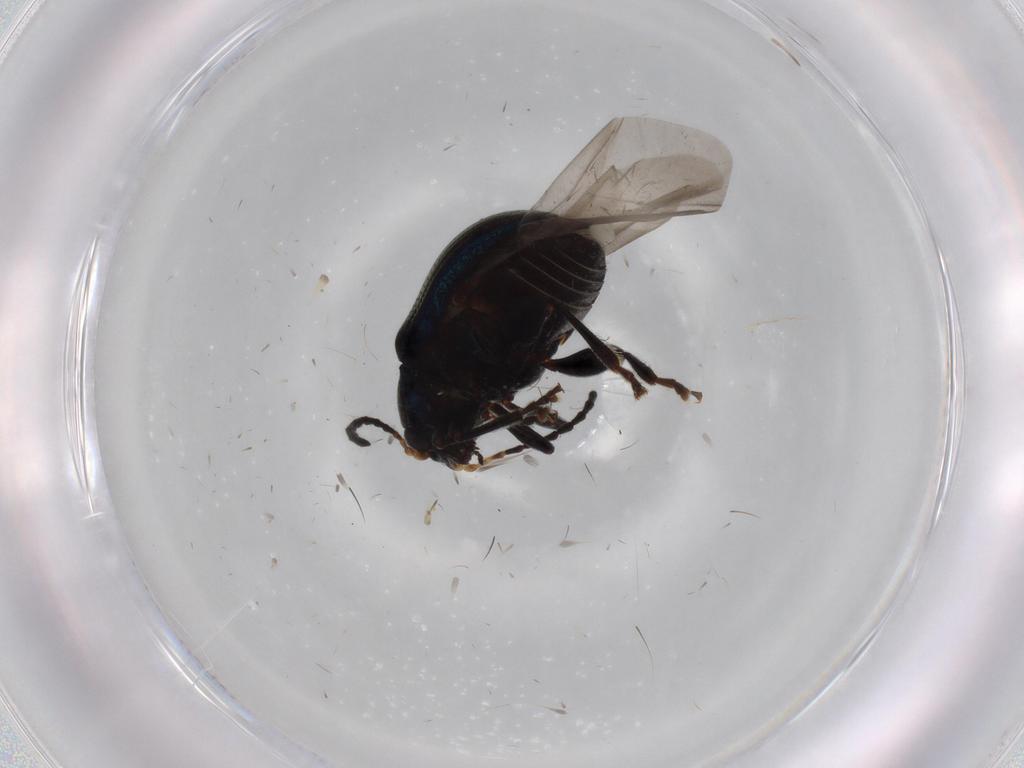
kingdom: Animalia
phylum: Arthropoda
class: Insecta
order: Coleoptera
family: Chrysomelidae
